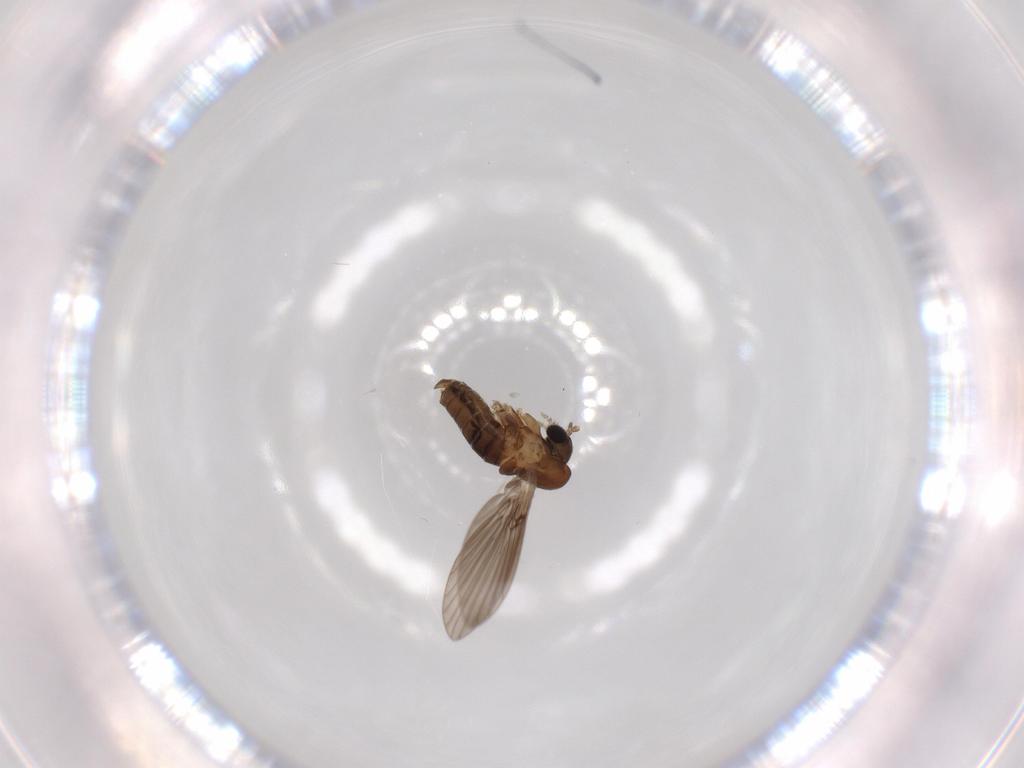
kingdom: Animalia
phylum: Arthropoda
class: Insecta
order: Diptera
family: Psychodidae
